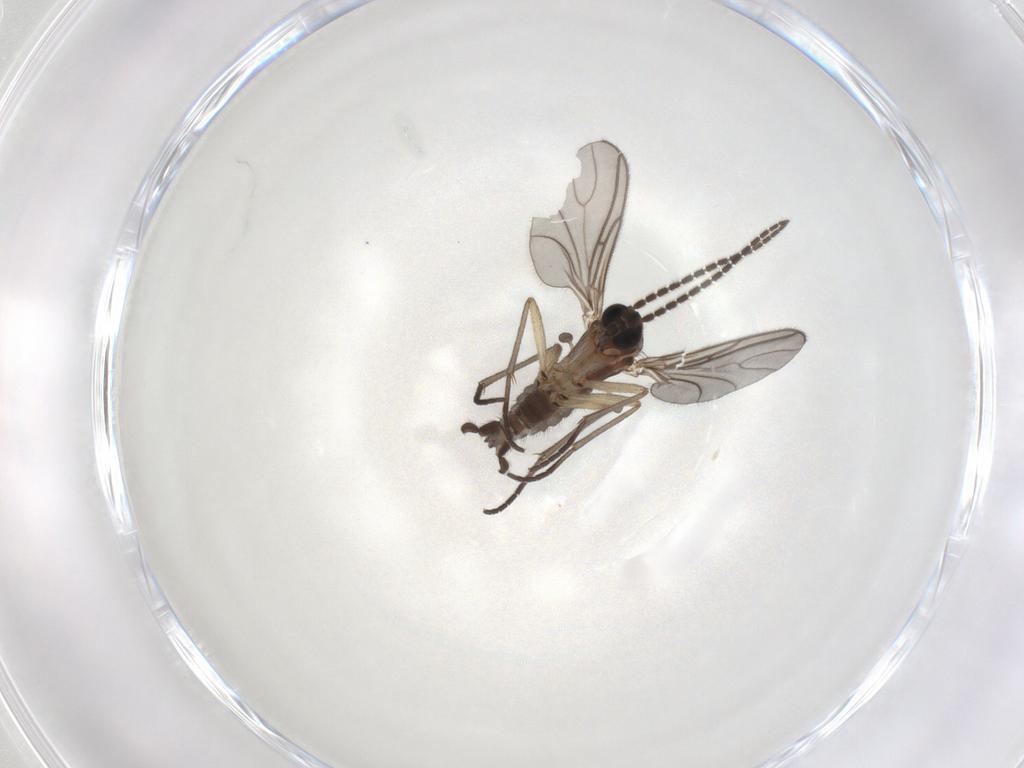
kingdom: Animalia
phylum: Arthropoda
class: Insecta
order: Diptera
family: Sciaridae
